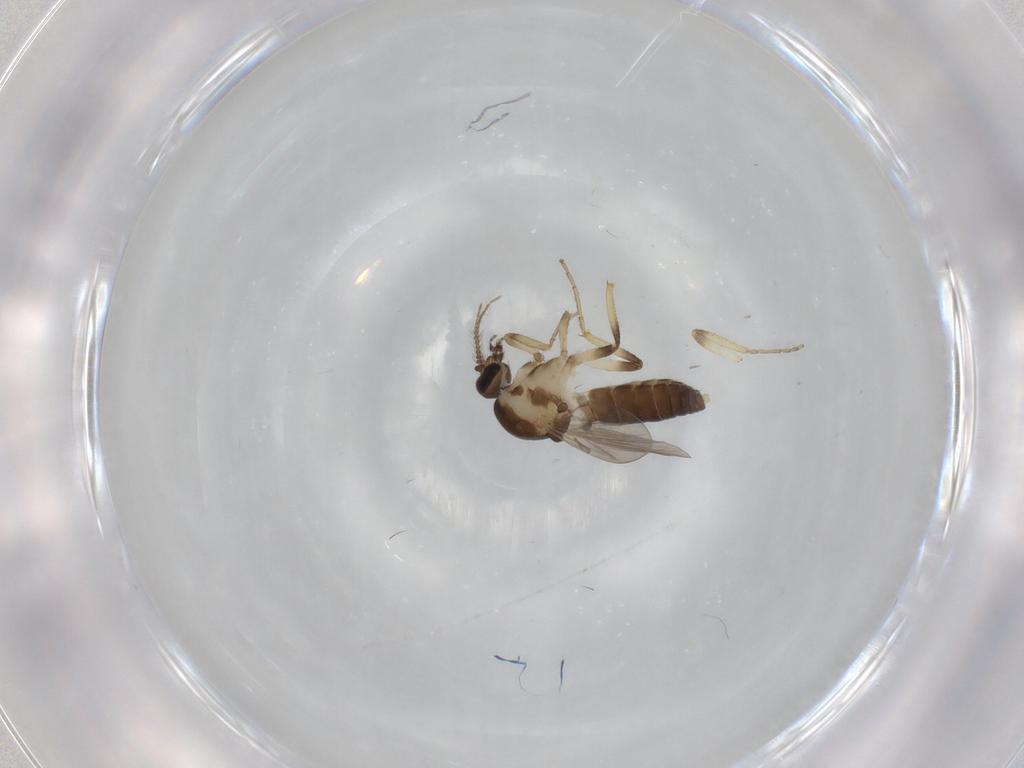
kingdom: Animalia
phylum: Arthropoda
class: Insecta
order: Diptera
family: Ceratopogonidae
